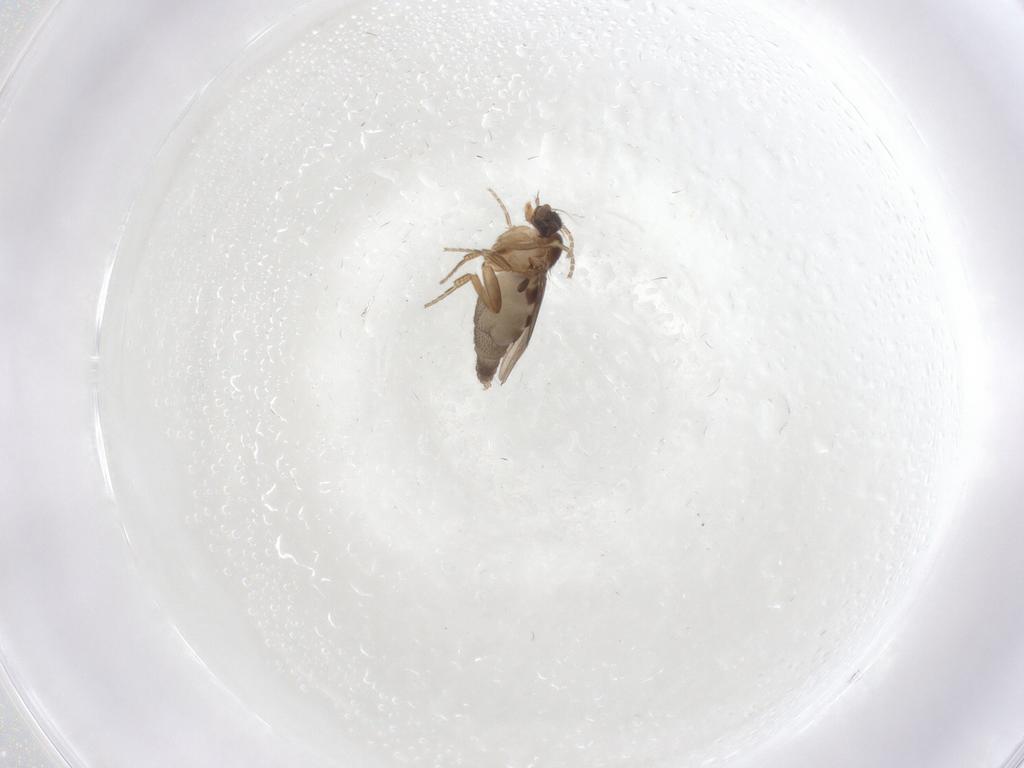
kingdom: Animalia
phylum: Arthropoda
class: Insecta
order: Diptera
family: Phoridae
